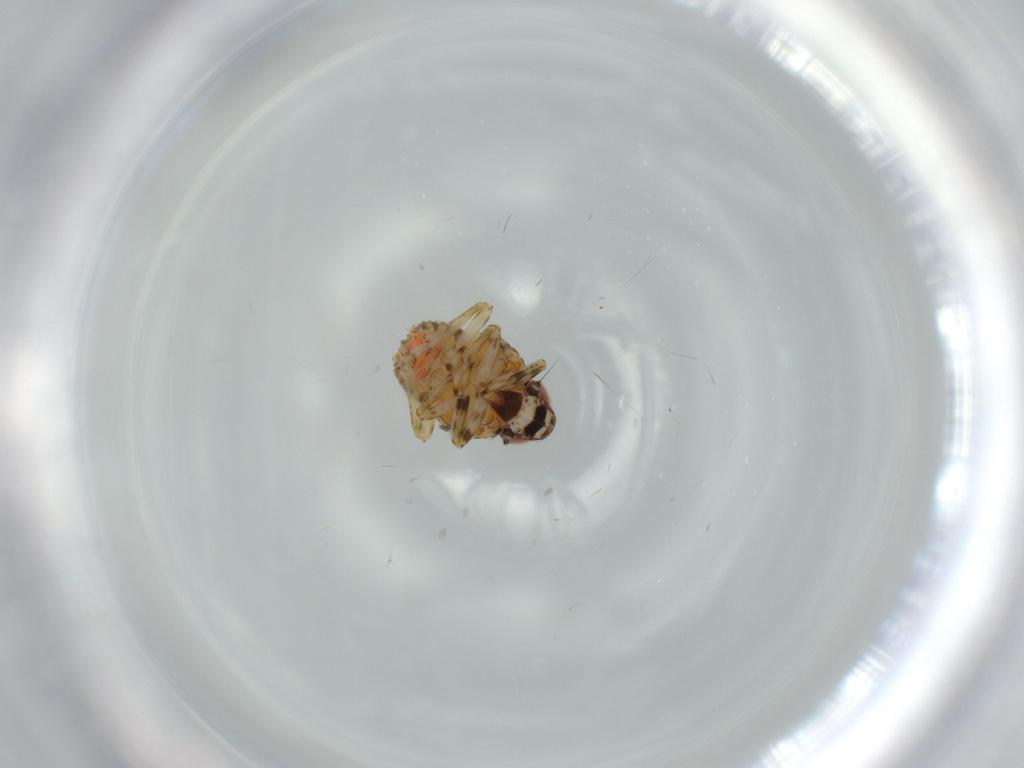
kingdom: Animalia
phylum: Arthropoda
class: Insecta
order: Hemiptera
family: Issidae
